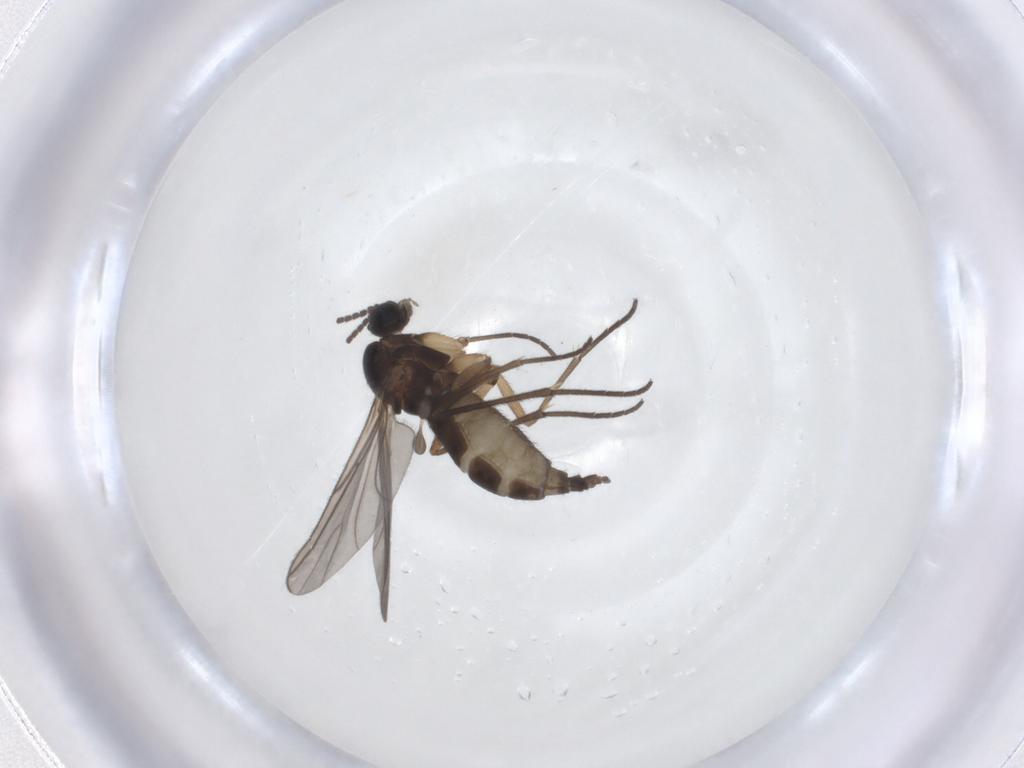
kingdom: Animalia
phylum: Arthropoda
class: Insecta
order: Diptera
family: Sciaridae
